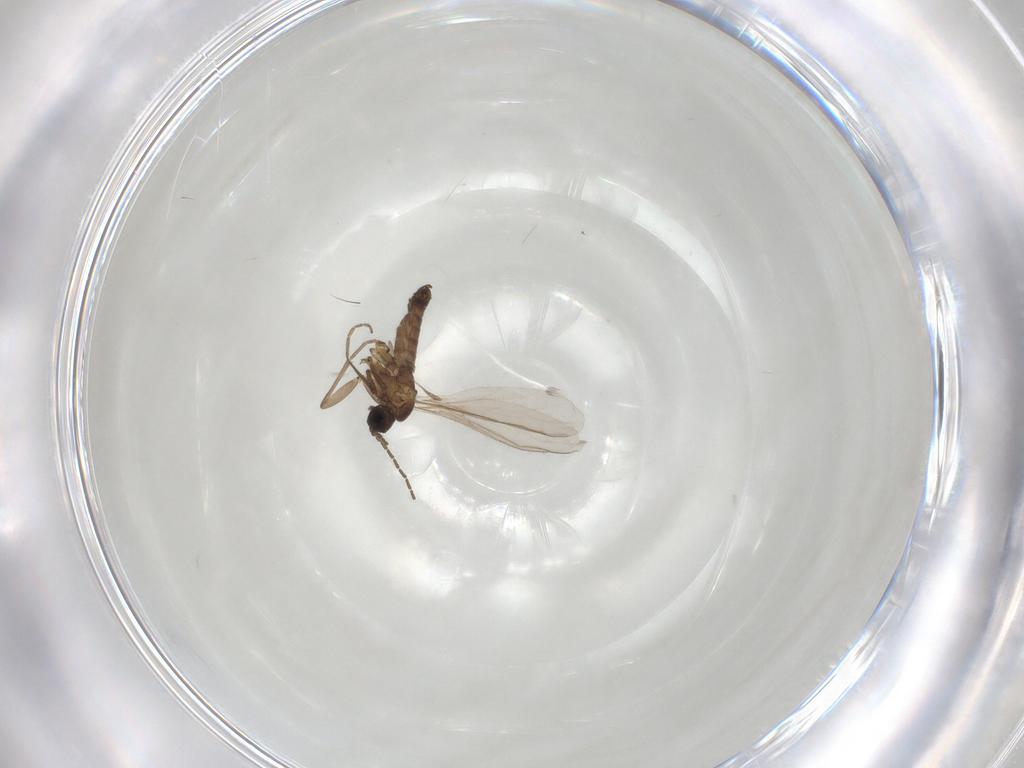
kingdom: Animalia
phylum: Arthropoda
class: Insecta
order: Diptera
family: Sciaridae
